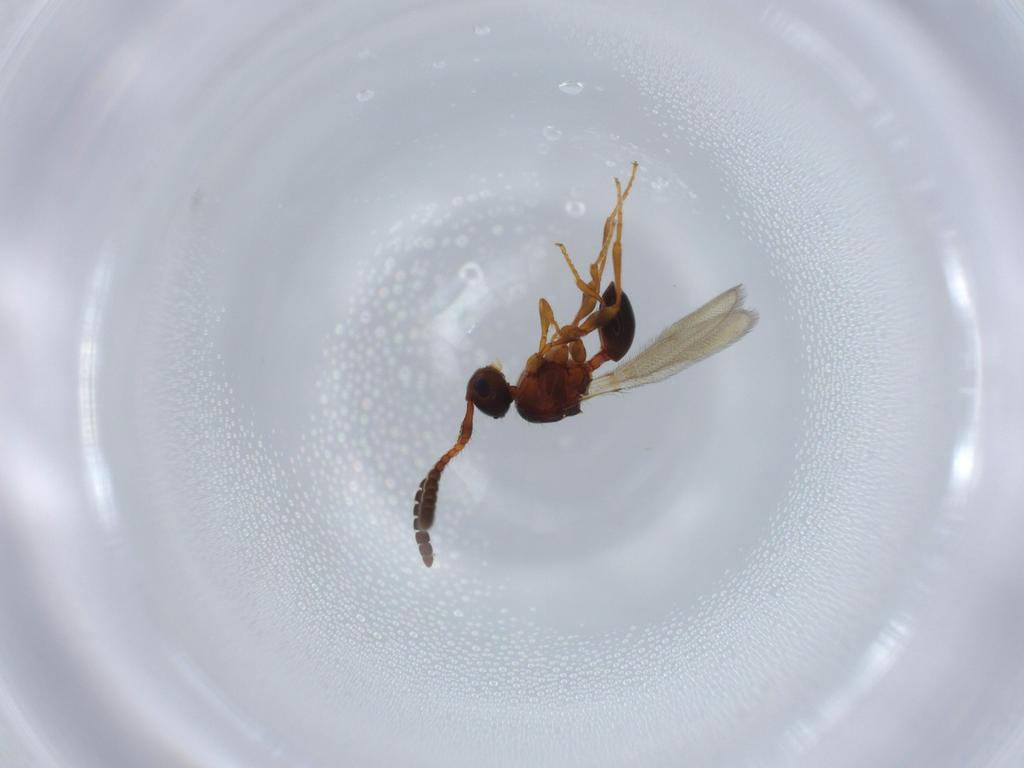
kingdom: Animalia
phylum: Arthropoda
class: Insecta
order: Hymenoptera
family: Diapriidae
